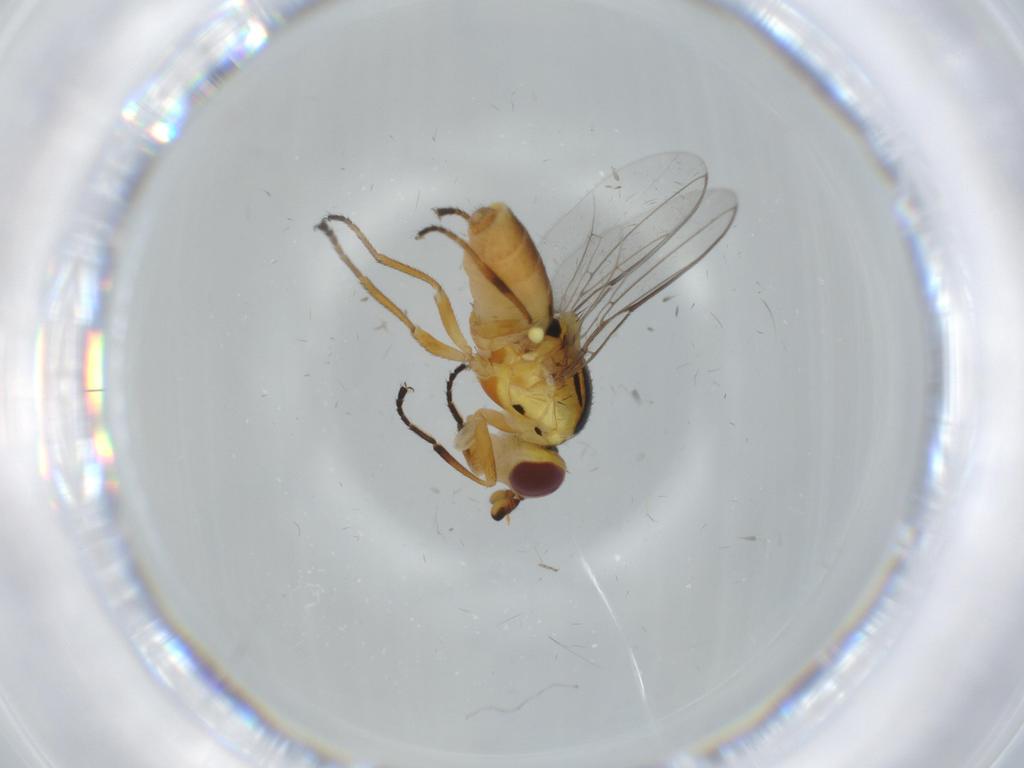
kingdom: Animalia
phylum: Arthropoda
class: Insecta
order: Diptera
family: Chloropidae
